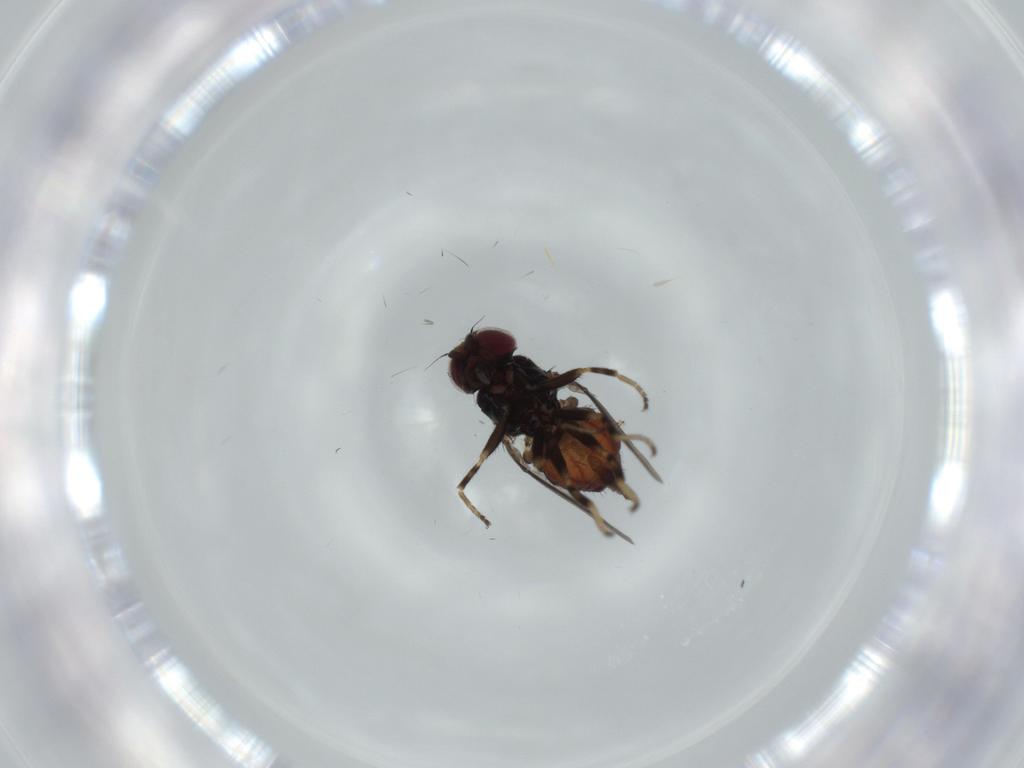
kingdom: Animalia
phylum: Arthropoda
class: Insecta
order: Diptera
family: Chloropidae
